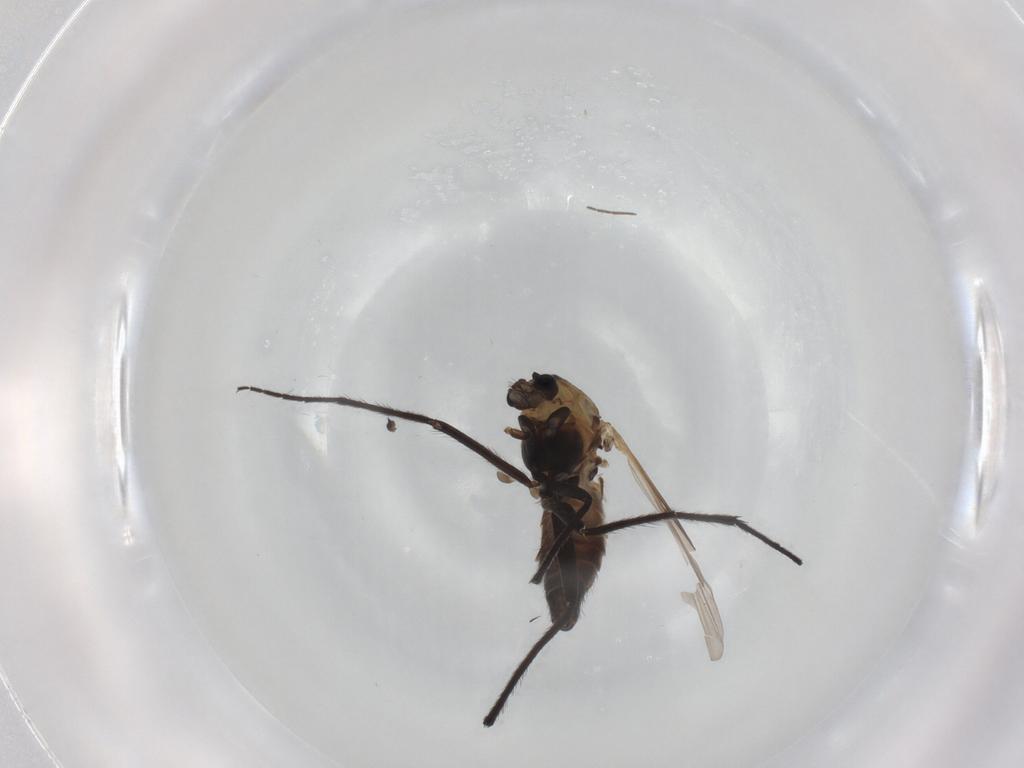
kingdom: Animalia
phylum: Arthropoda
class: Insecta
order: Diptera
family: Chironomidae
